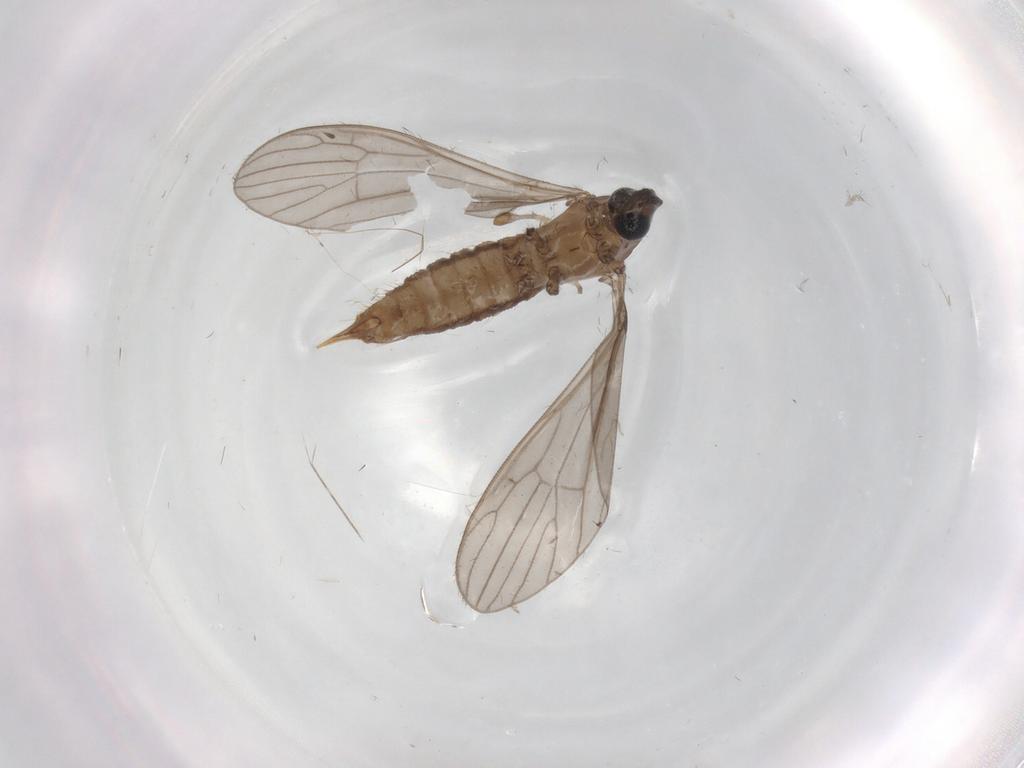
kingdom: Animalia
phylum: Arthropoda
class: Insecta
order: Diptera
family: Limoniidae
